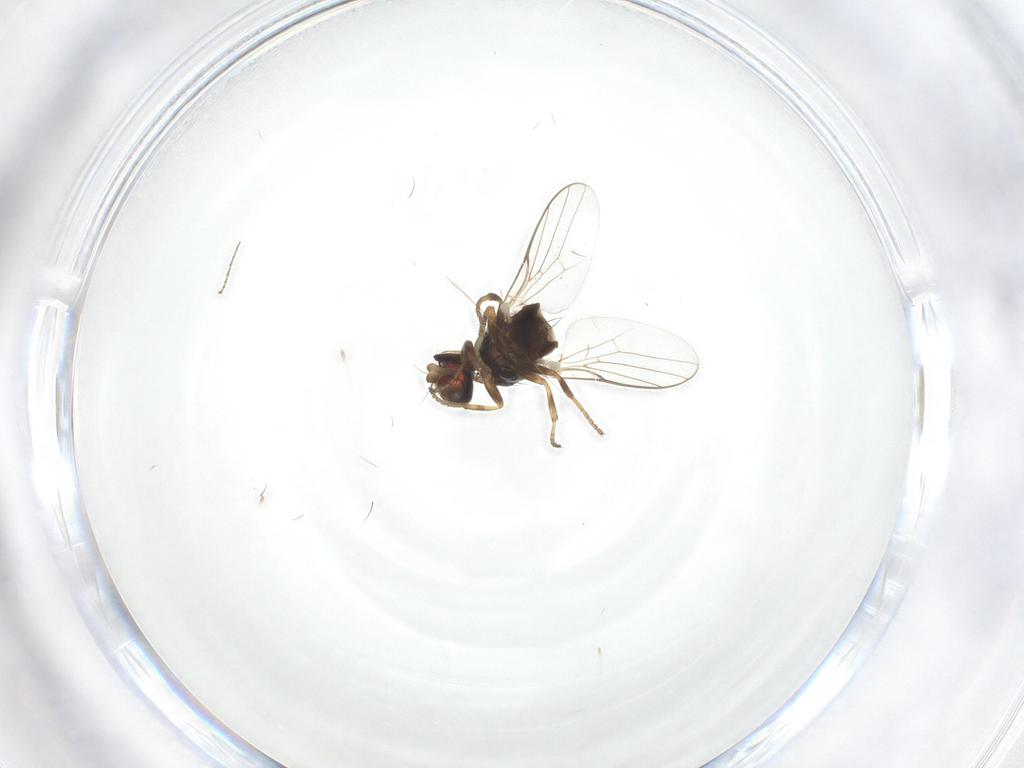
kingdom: Animalia
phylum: Arthropoda
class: Insecta
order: Diptera
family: Chloropidae
